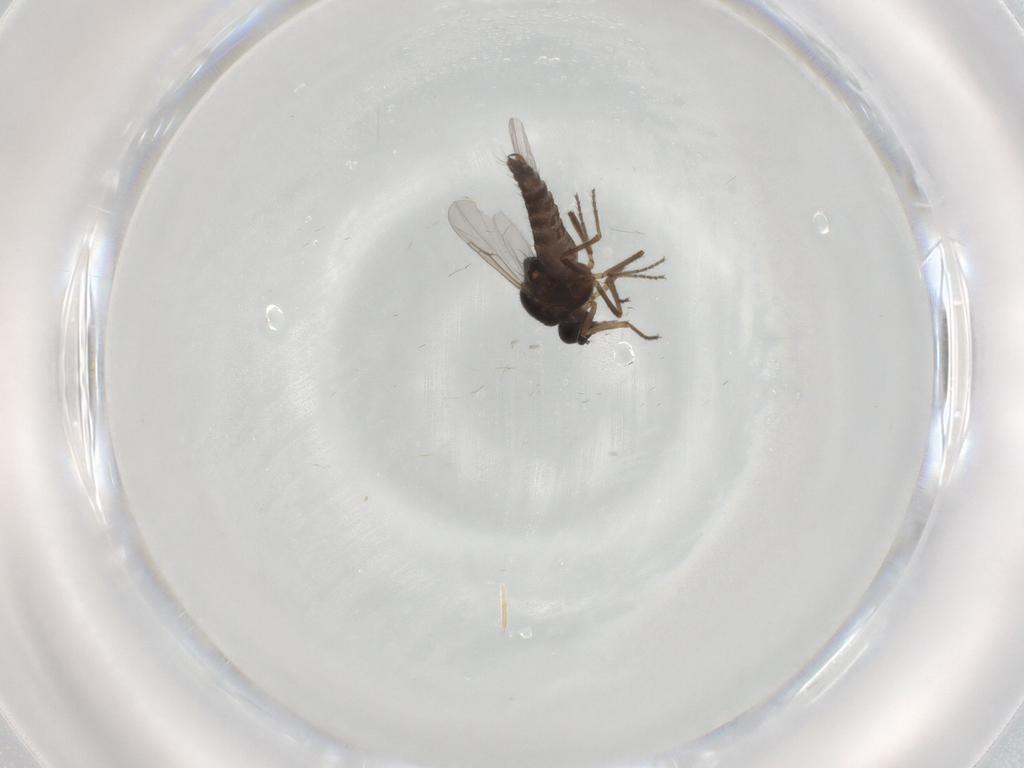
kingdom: Animalia
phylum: Arthropoda
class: Insecta
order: Diptera
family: Ceratopogonidae
